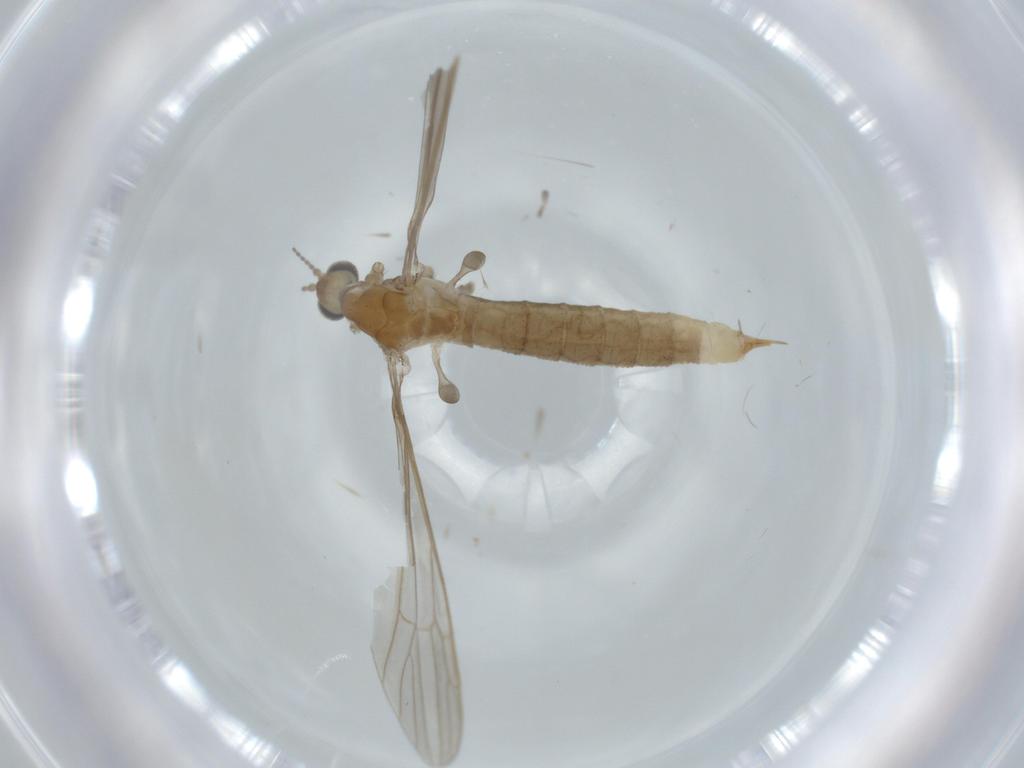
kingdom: Animalia
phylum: Arthropoda
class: Insecta
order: Diptera
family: Limoniidae
